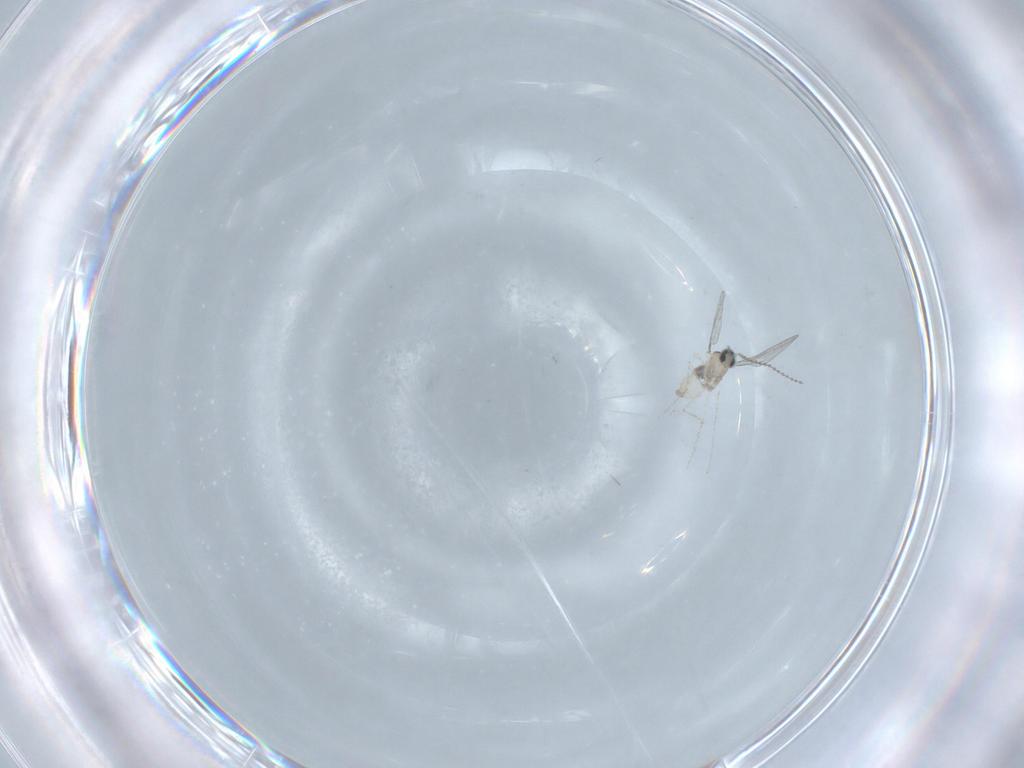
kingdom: Animalia
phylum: Arthropoda
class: Insecta
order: Diptera
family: Cecidomyiidae
